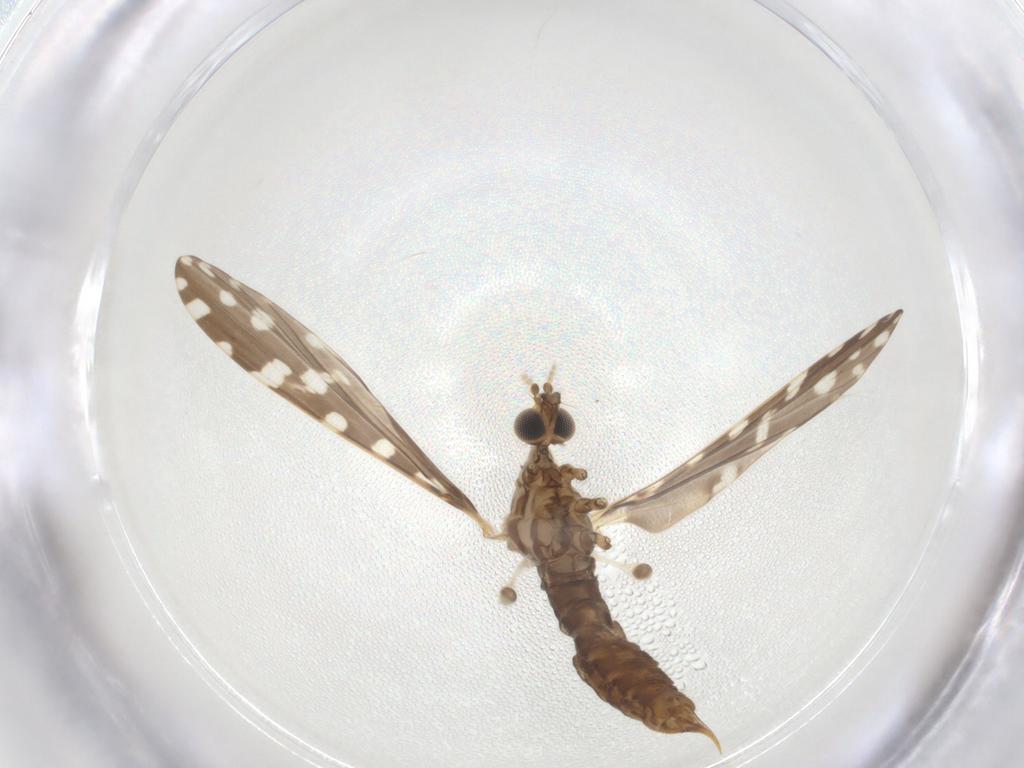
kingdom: Animalia
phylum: Arthropoda
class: Insecta
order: Diptera
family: Limoniidae
